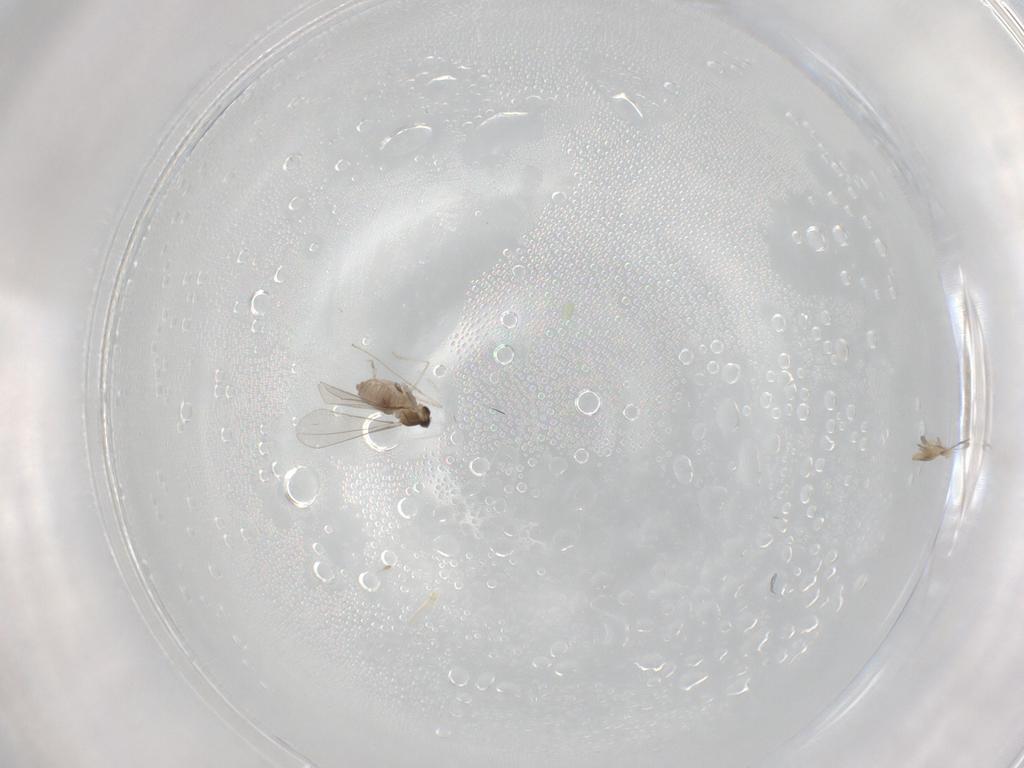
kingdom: Animalia
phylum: Arthropoda
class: Insecta
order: Diptera
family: Cecidomyiidae
